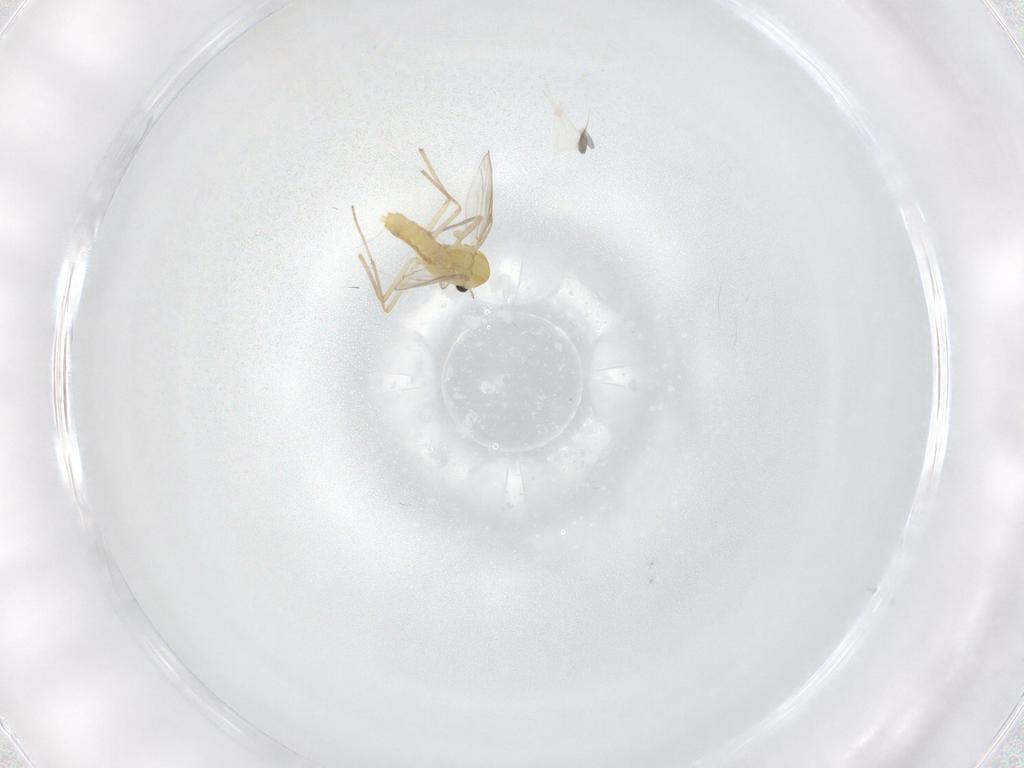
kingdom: Animalia
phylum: Arthropoda
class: Insecta
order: Diptera
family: Chironomidae
